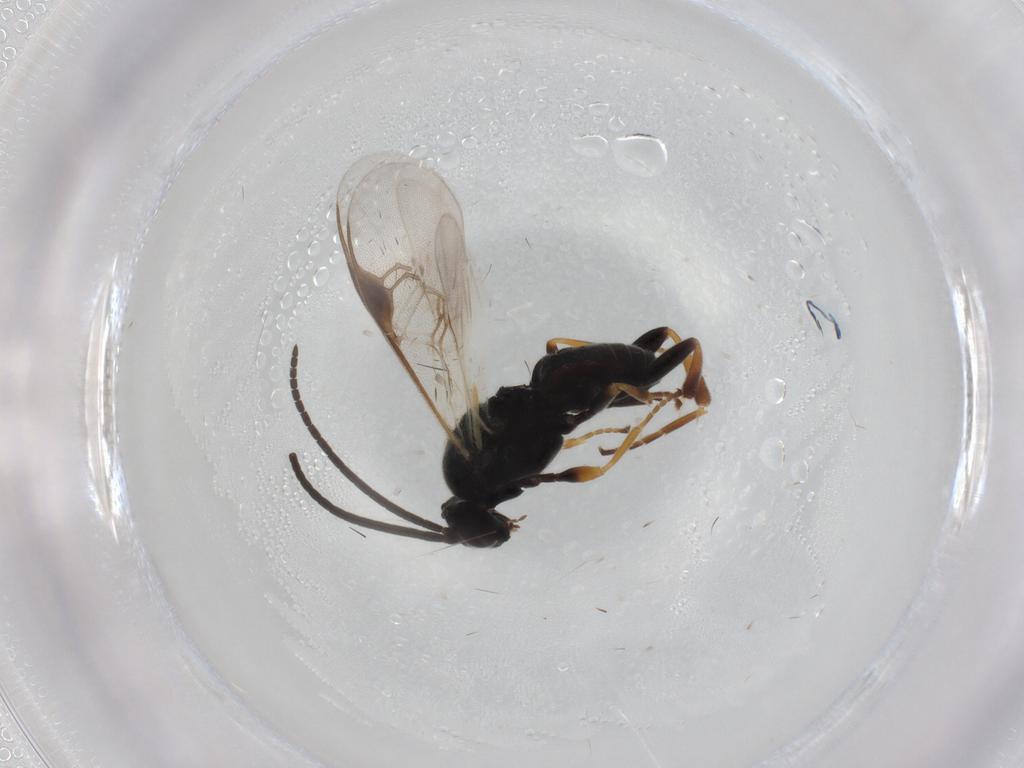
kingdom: Animalia
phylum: Arthropoda
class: Insecta
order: Hymenoptera
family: Braconidae
